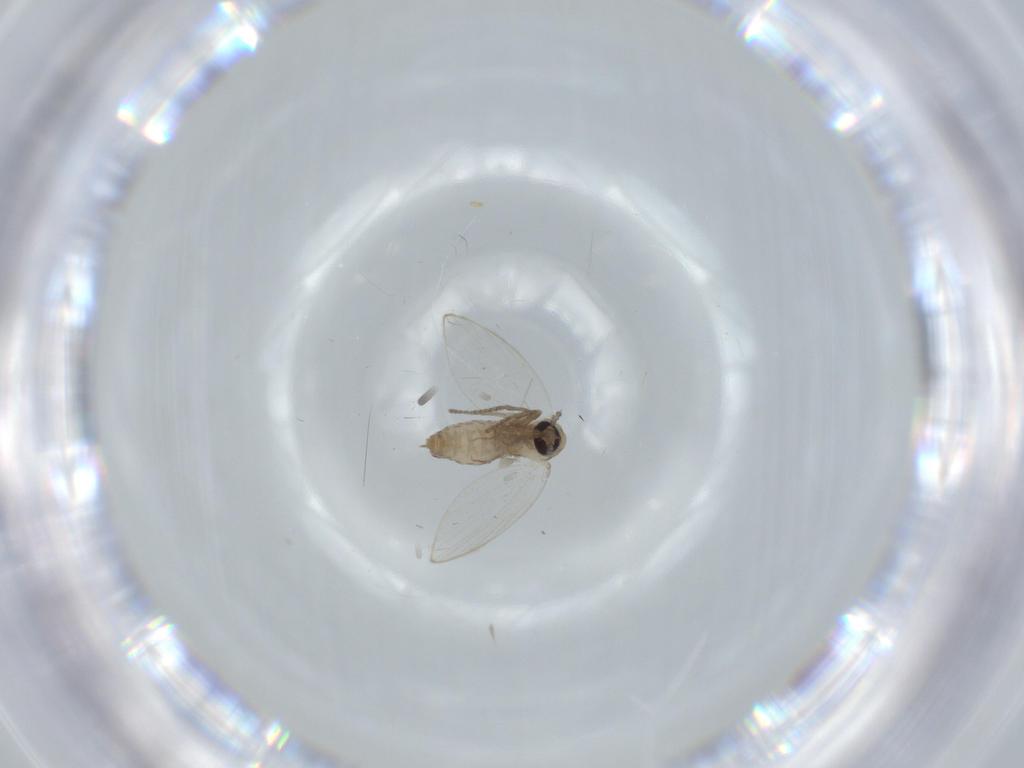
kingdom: Animalia
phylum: Arthropoda
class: Insecta
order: Diptera
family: Psychodidae
